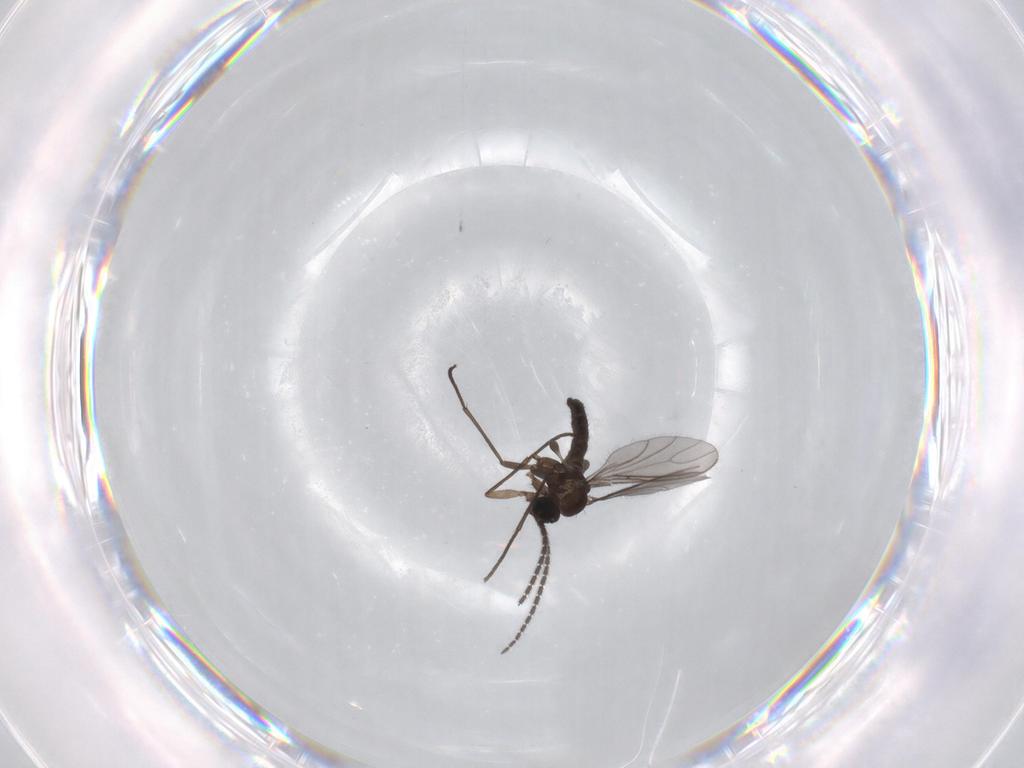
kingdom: Animalia
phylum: Arthropoda
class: Insecta
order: Diptera
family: Sciaridae
